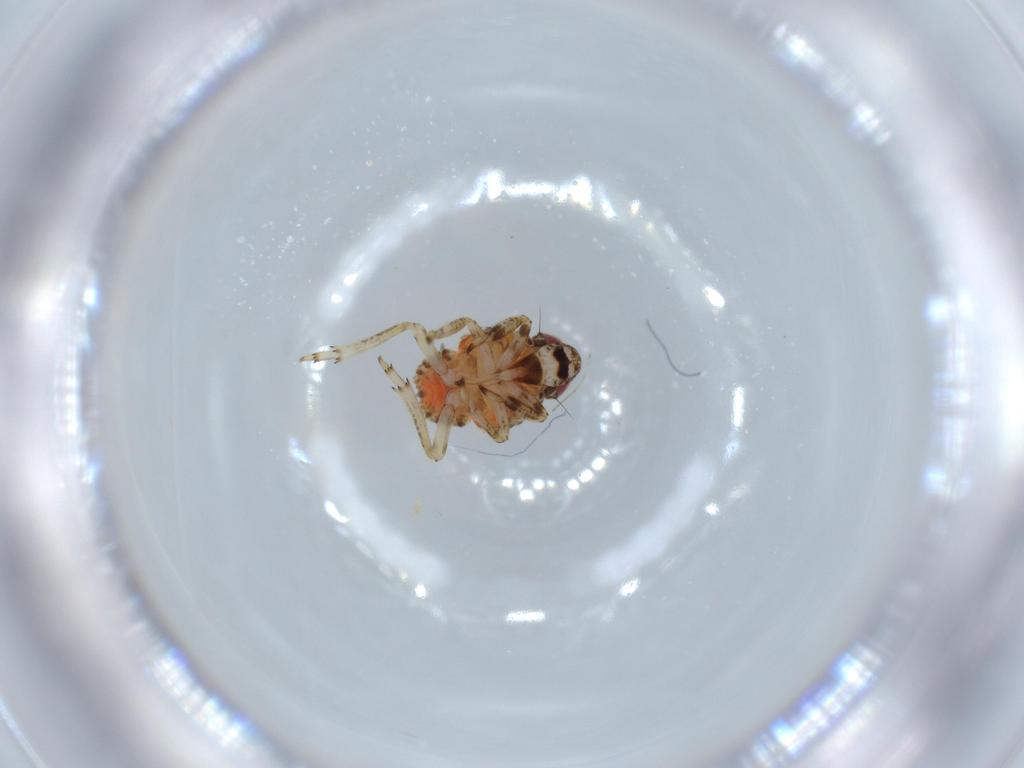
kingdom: Animalia
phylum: Arthropoda
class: Insecta
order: Hemiptera
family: Issidae
